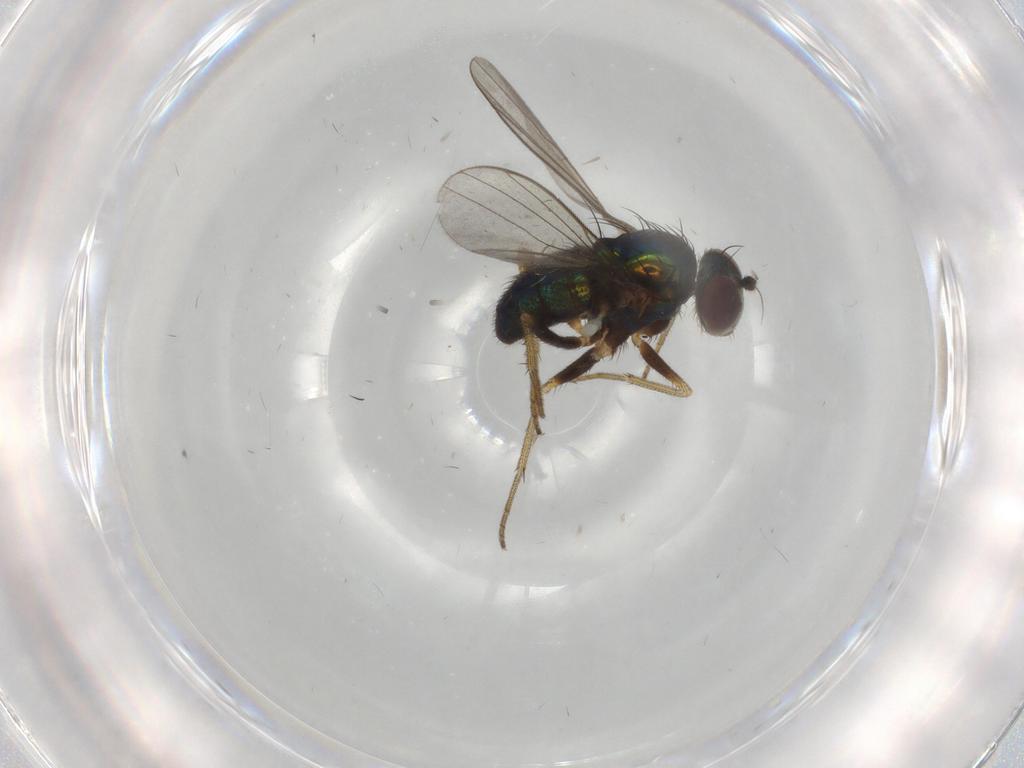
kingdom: Animalia
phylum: Arthropoda
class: Insecta
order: Diptera
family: Dolichopodidae
